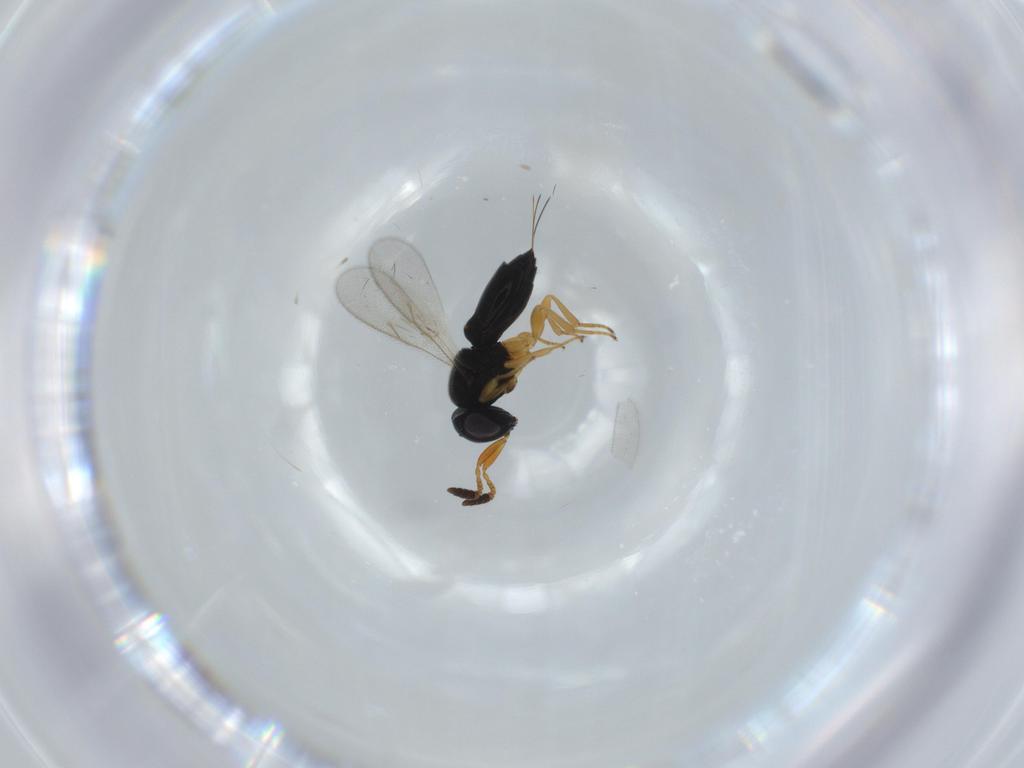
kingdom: Animalia
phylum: Arthropoda
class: Insecta
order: Hymenoptera
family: Scelionidae
